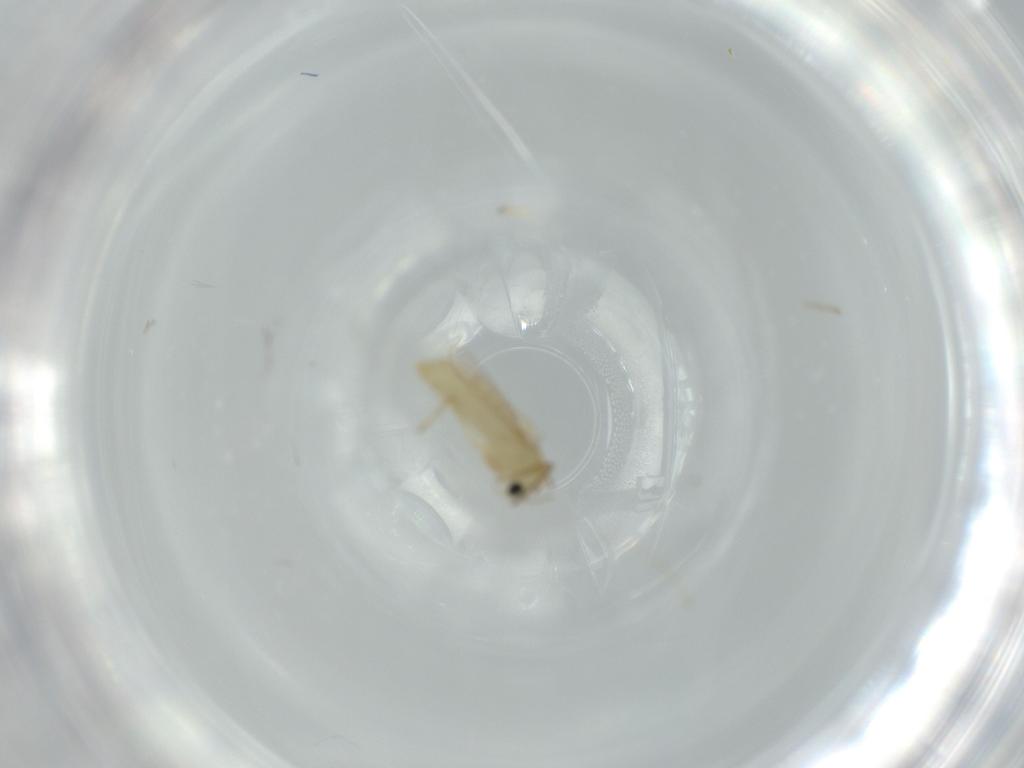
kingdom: Animalia
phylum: Arthropoda
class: Insecta
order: Diptera
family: Chironomidae
